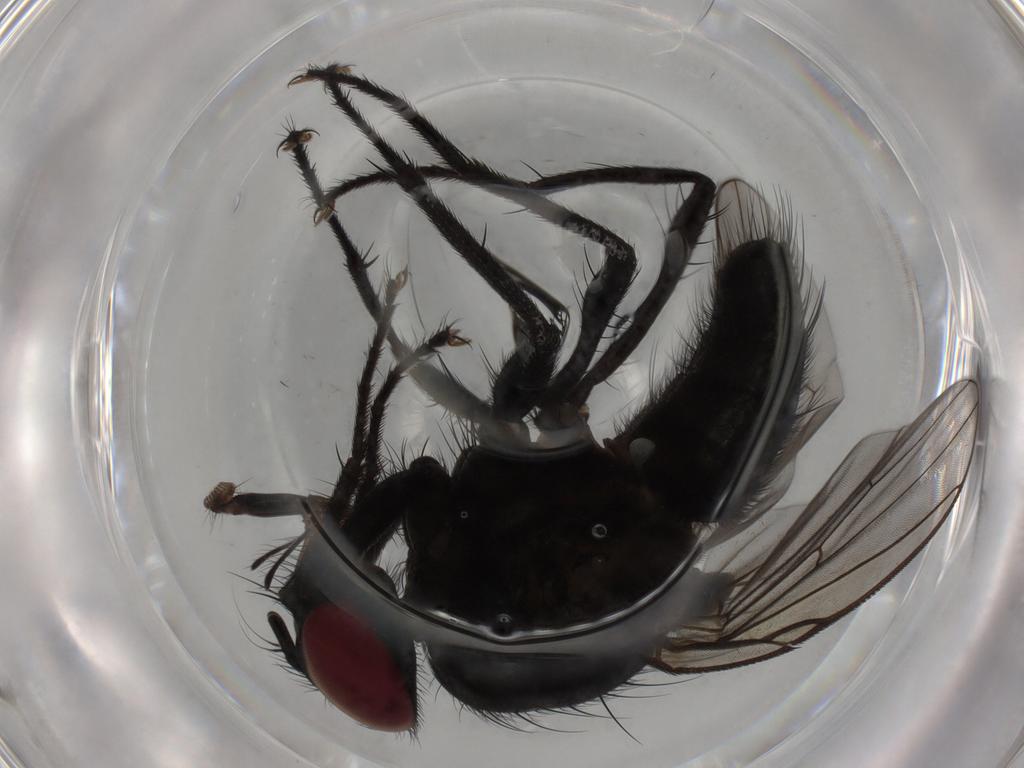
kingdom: Animalia
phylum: Arthropoda
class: Insecta
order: Diptera
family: Muscidae
